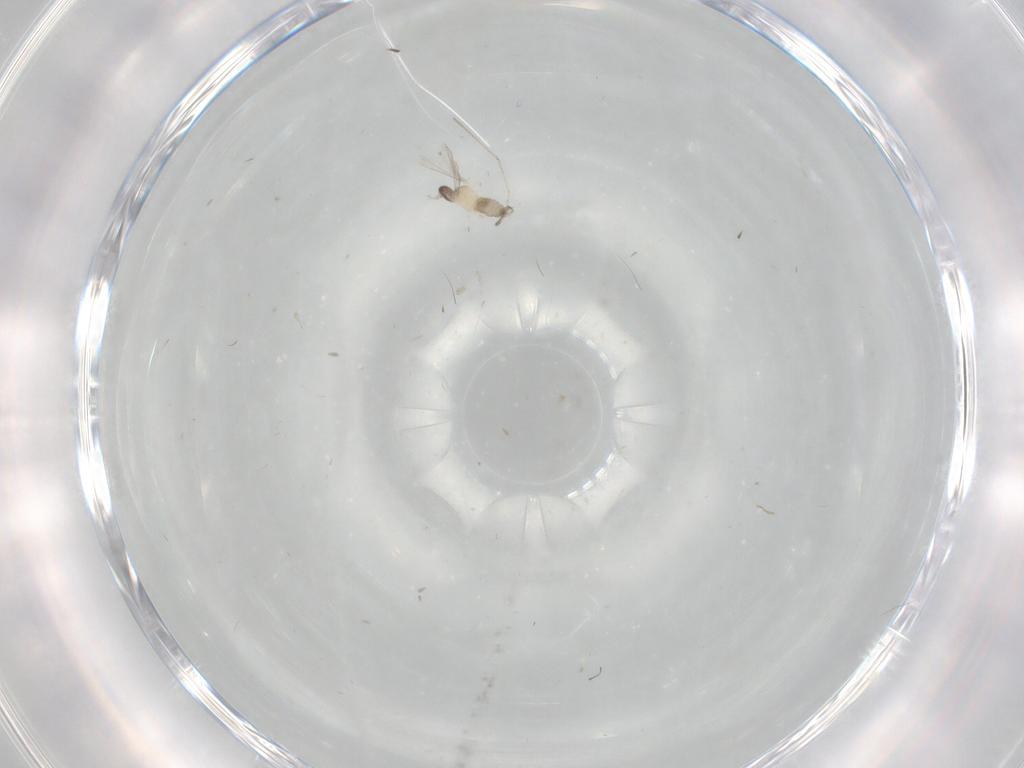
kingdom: Animalia
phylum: Arthropoda
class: Insecta
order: Diptera
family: Cecidomyiidae
